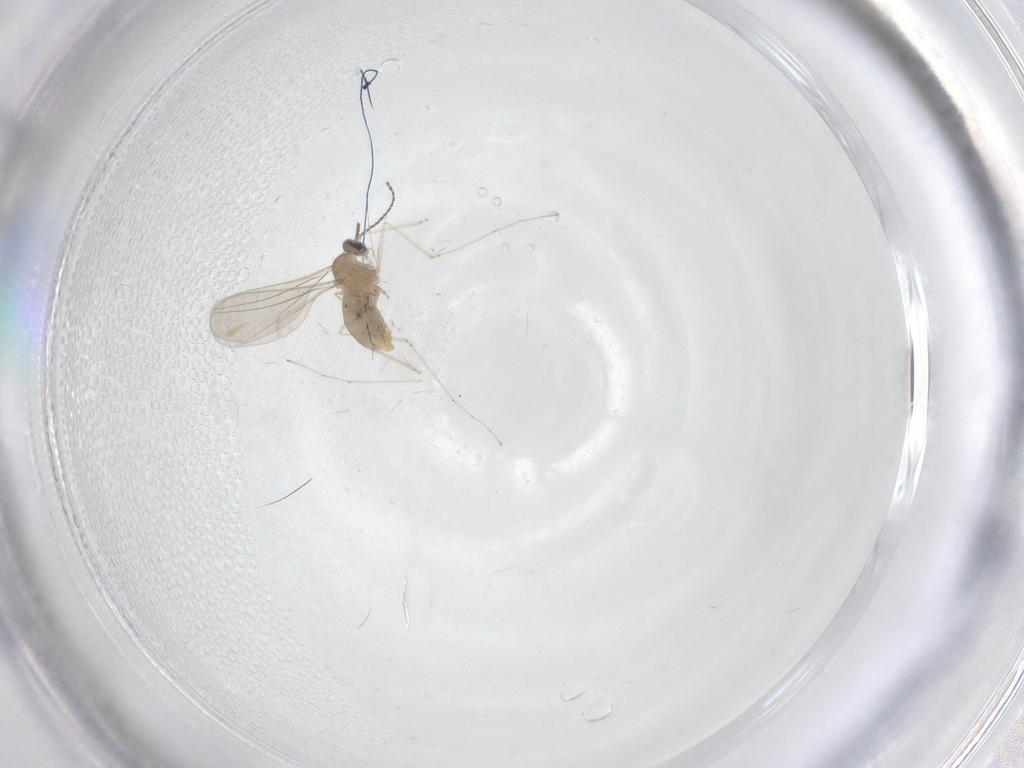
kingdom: Animalia
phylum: Arthropoda
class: Insecta
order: Diptera
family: Cecidomyiidae
